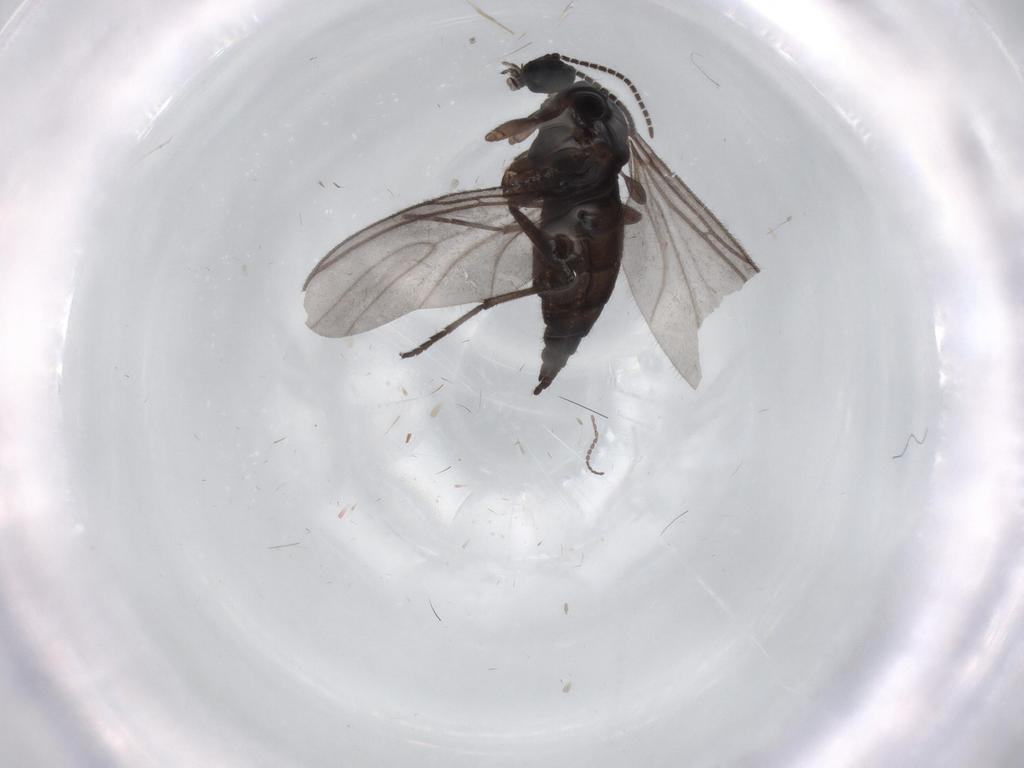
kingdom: Animalia
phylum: Arthropoda
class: Insecta
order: Diptera
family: Sciaridae
